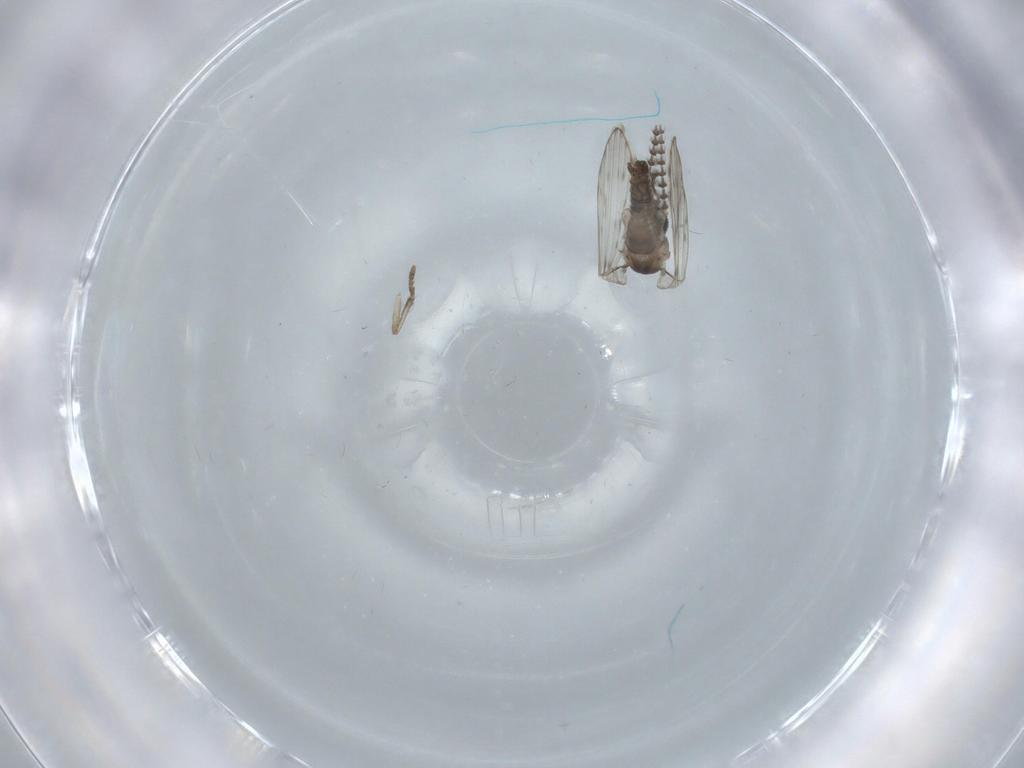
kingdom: Animalia
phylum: Arthropoda
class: Insecta
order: Diptera
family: Psychodidae
